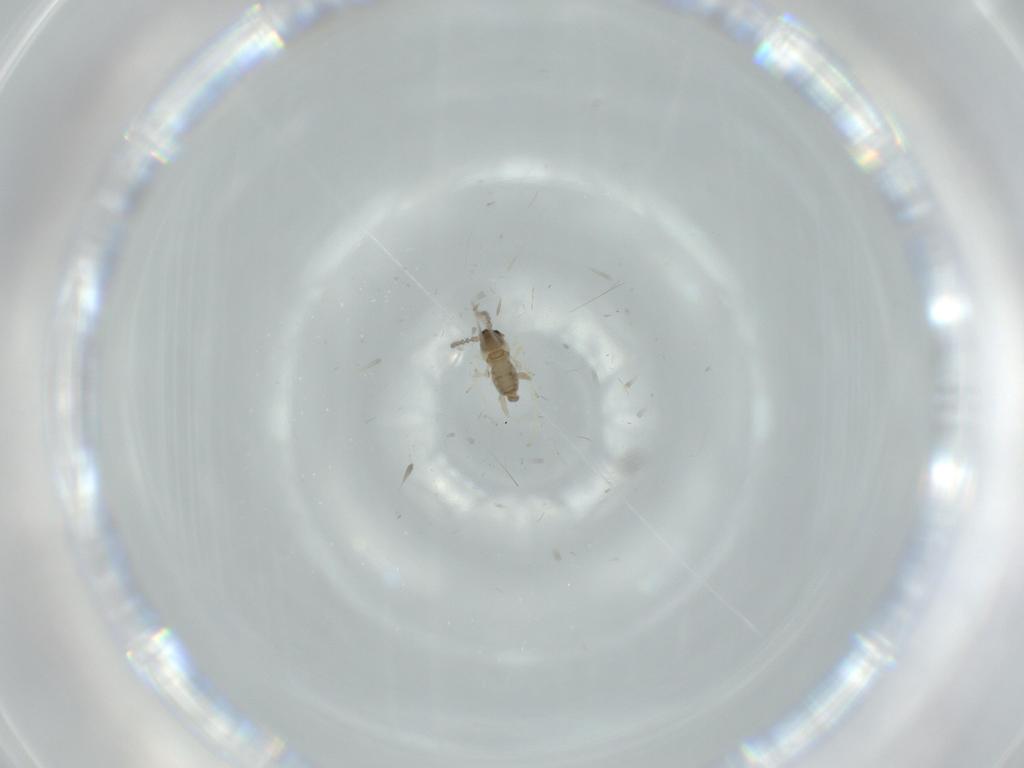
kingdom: Animalia
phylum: Arthropoda
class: Insecta
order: Diptera
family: Cecidomyiidae
